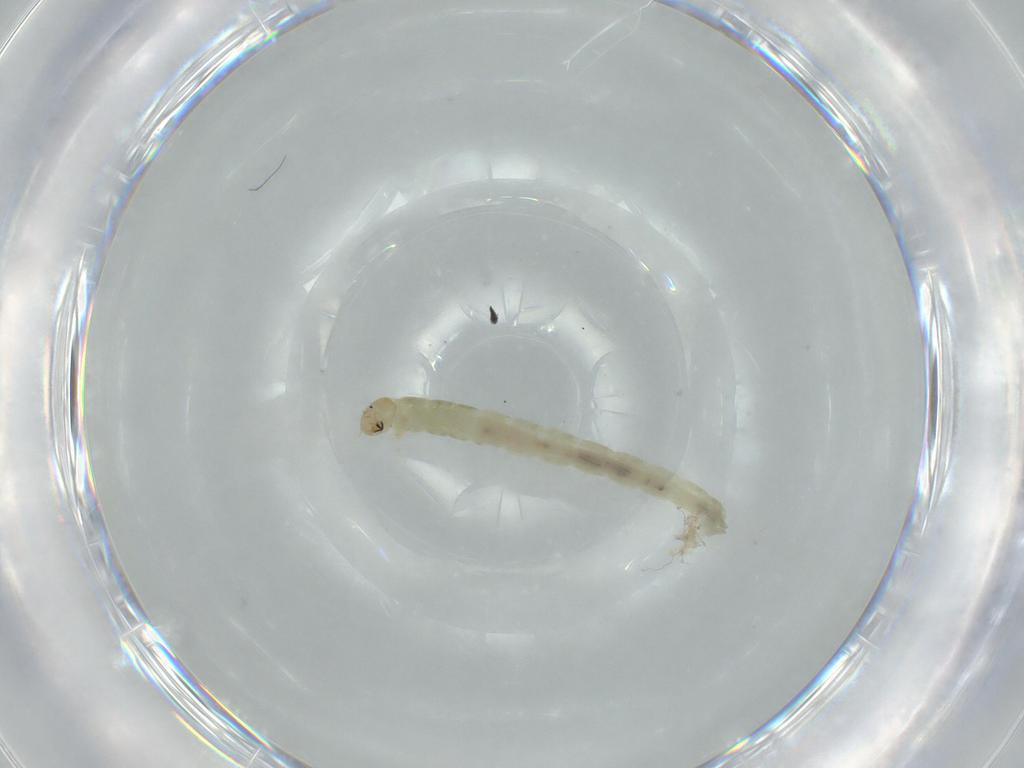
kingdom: Animalia
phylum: Arthropoda
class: Insecta
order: Diptera
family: Chironomidae
